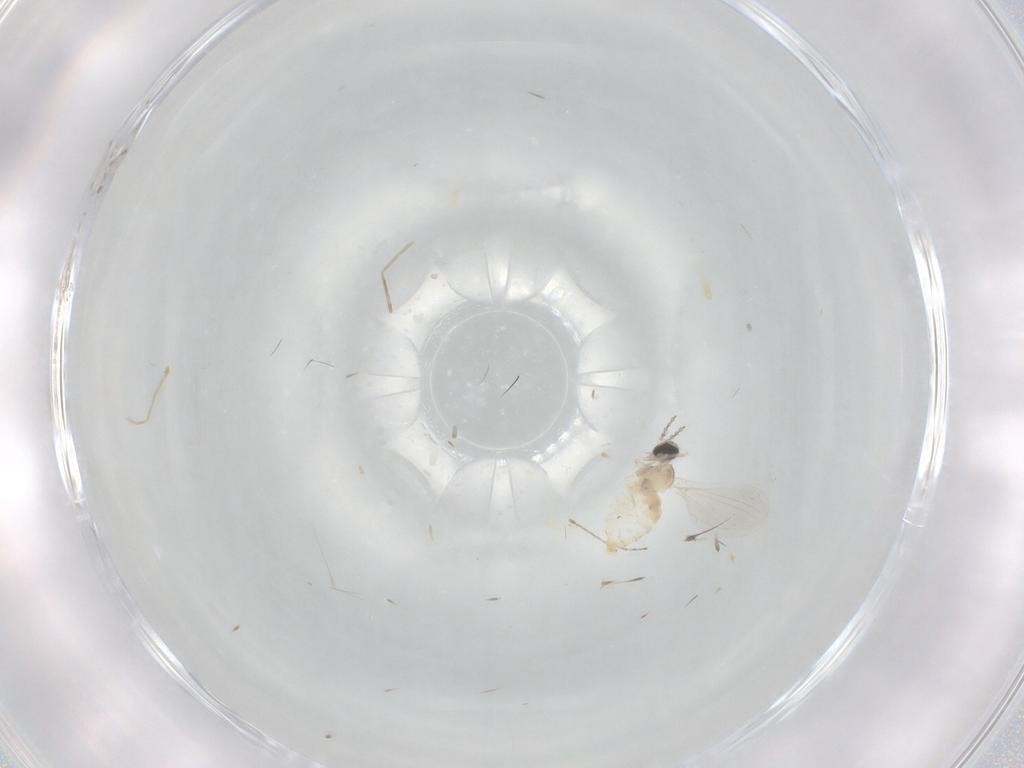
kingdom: Animalia
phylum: Arthropoda
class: Insecta
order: Diptera
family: Cecidomyiidae
